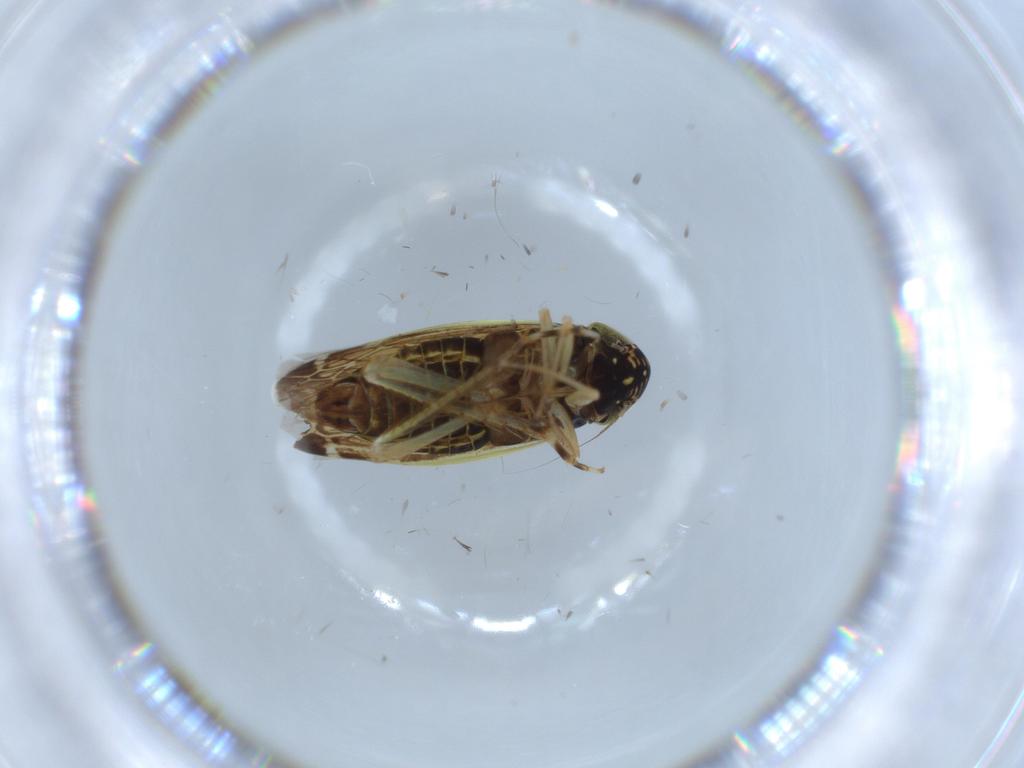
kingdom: Animalia
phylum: Arthropoda
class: Insecta
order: Hemiptera
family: Cicadellidae
